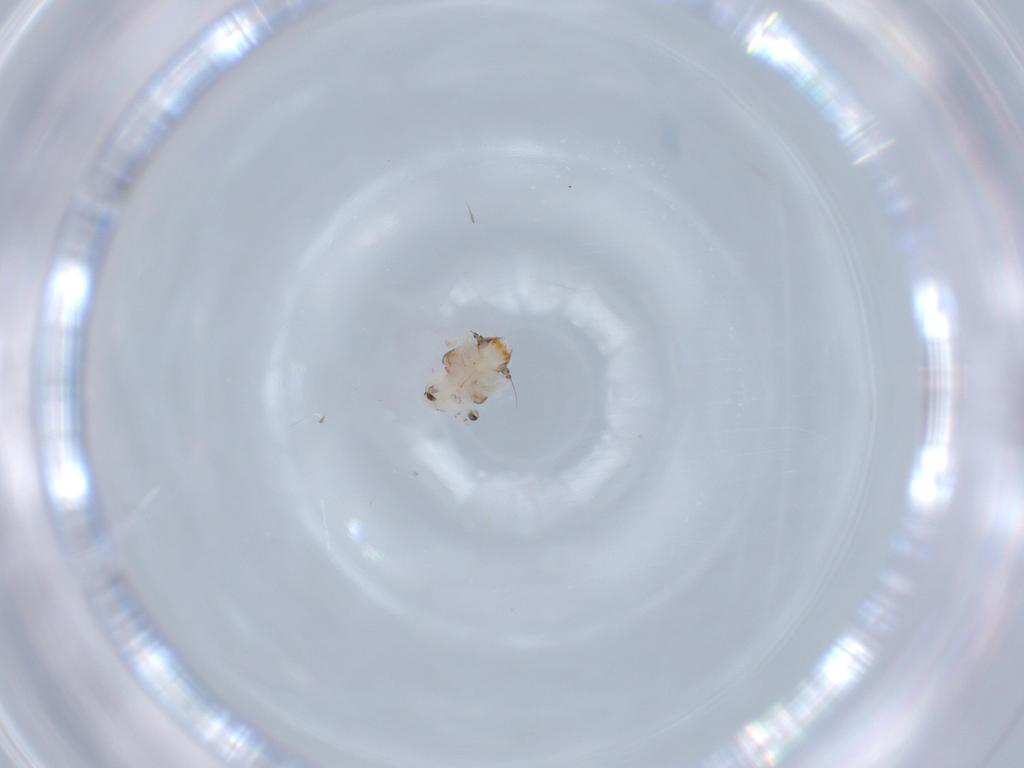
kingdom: Animalia
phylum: Arthropoda
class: Insecta
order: Hemiptera
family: Nogodinidae
